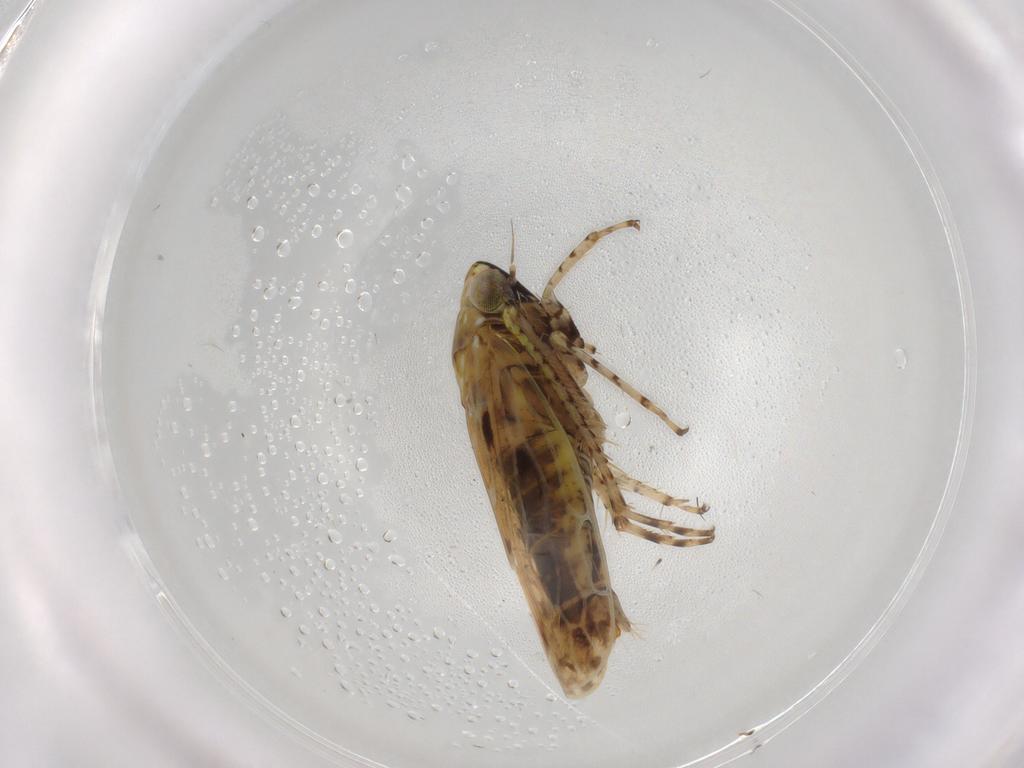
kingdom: Animalia
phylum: Arthropoda
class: Insecta
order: Hemiptera
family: Cicadellidae
